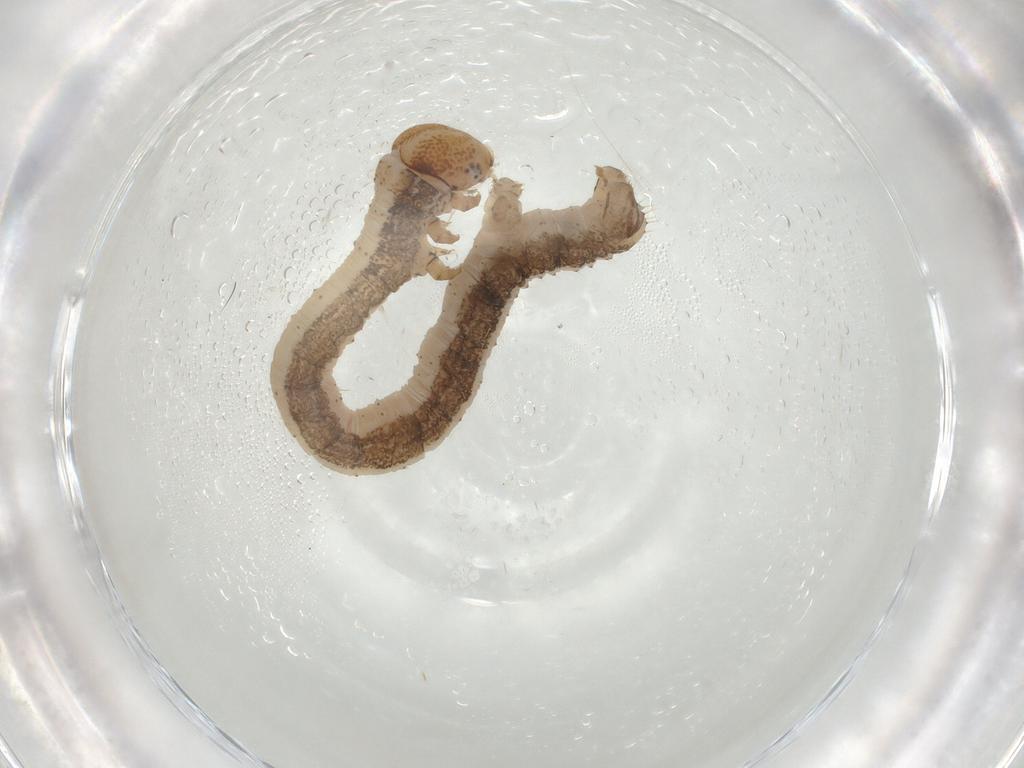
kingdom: Animalia
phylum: Arthropoda
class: Insecta
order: Lepidoptera
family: Geometridae
